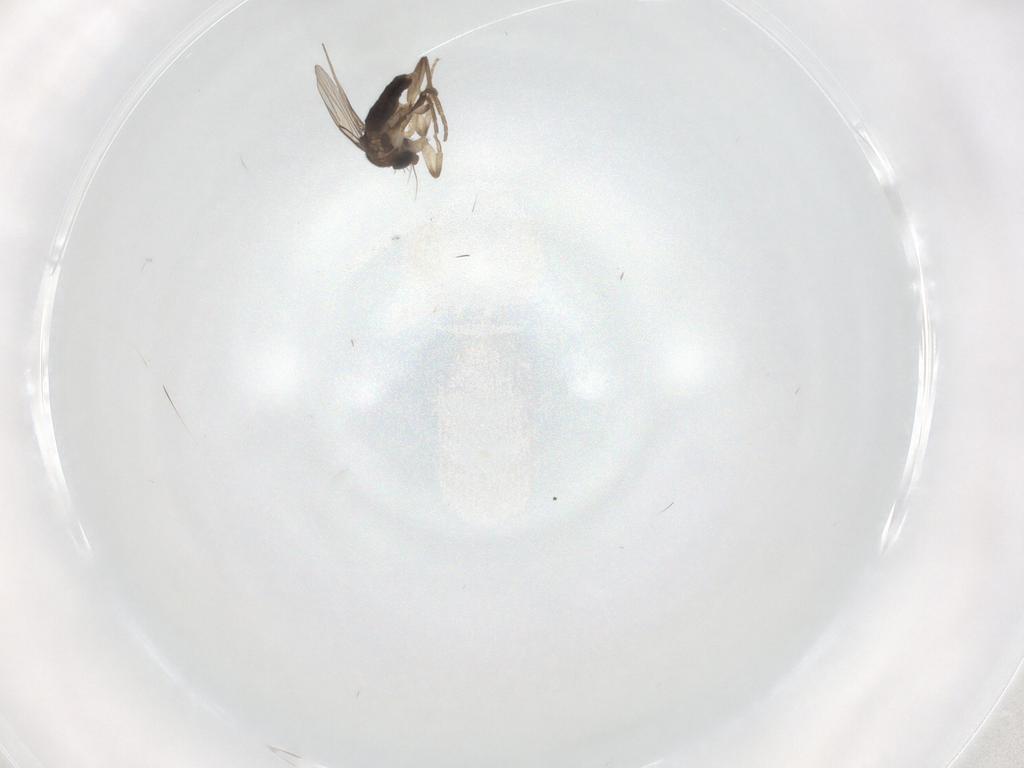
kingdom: Animalia
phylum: Arthropoda
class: Insecta
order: Diptera
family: Phoridae
